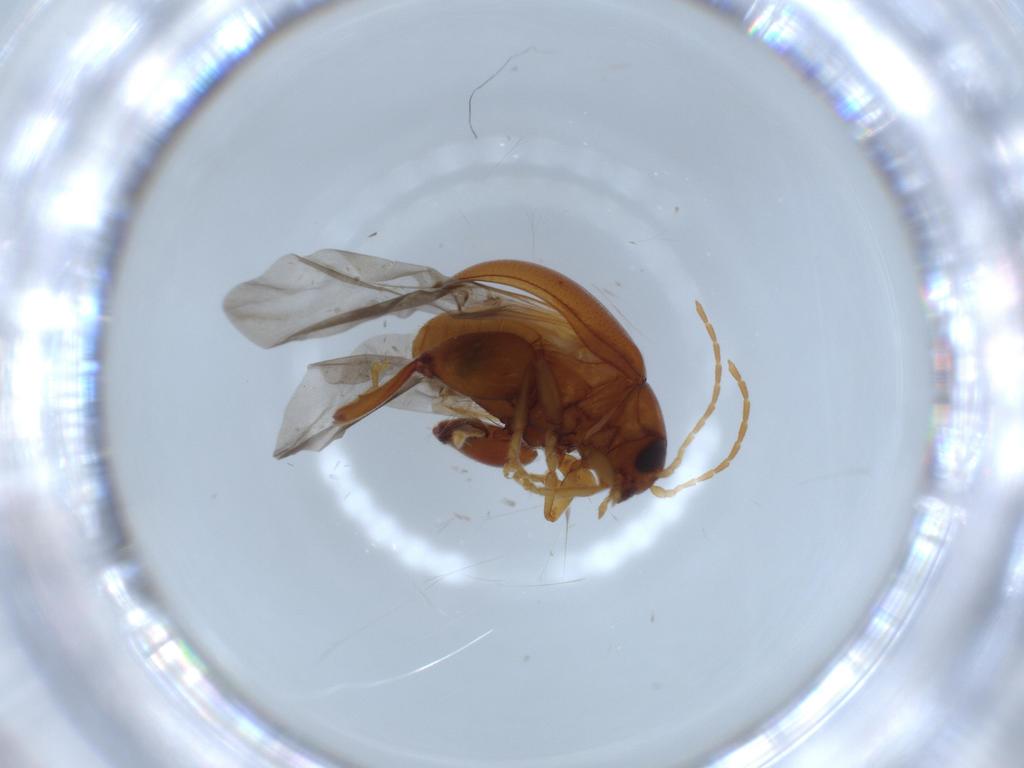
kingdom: Animalia
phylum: Arthropoda
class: Insecta
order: Coleoptera
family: Chrysomelidae
